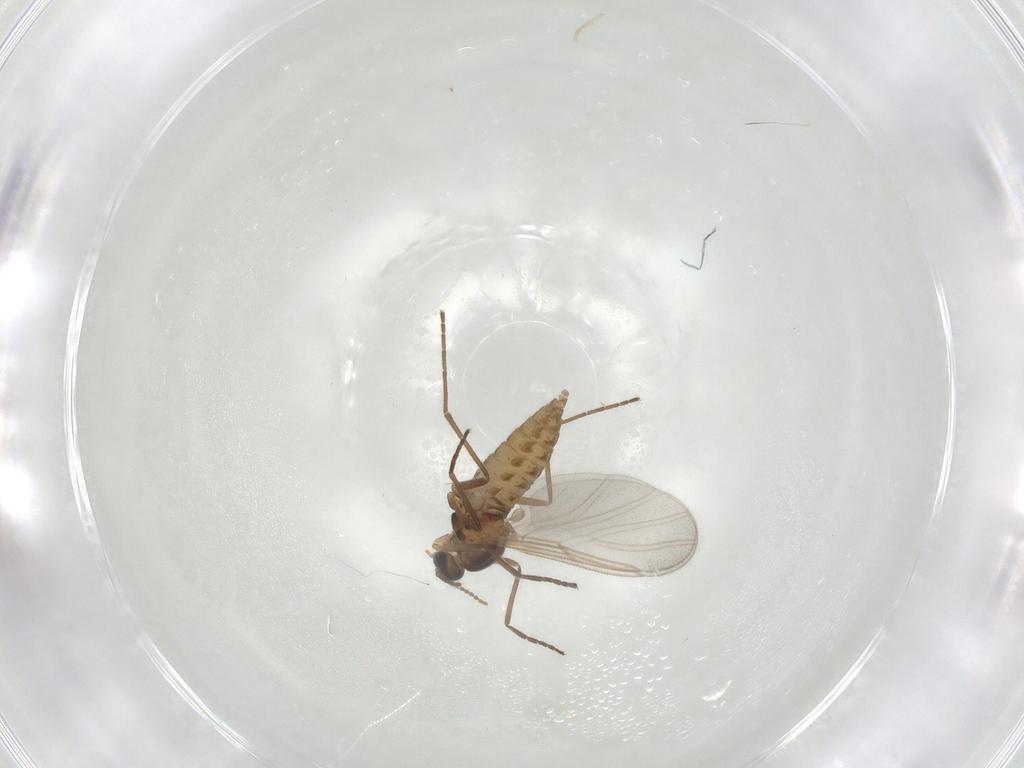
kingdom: Animalia
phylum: Arthropoda
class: Insecta
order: Diptera
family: Cecidomyiidae
